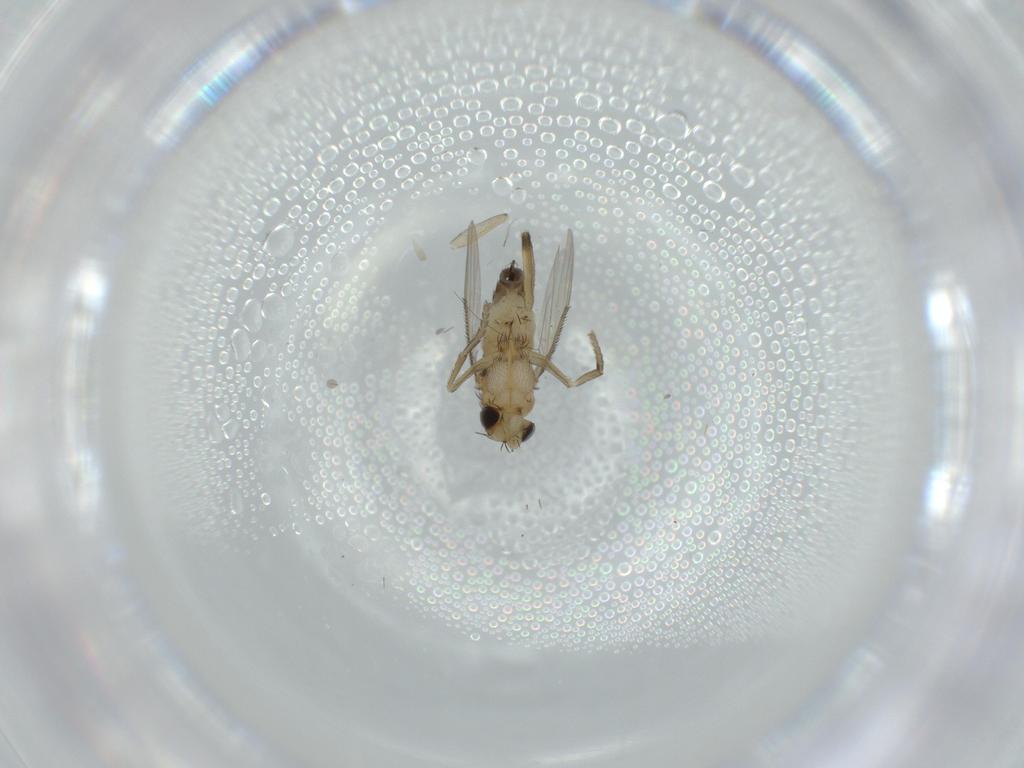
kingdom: Animalia
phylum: Arthropoda
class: Insecta
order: Diptera
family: Phoridae
